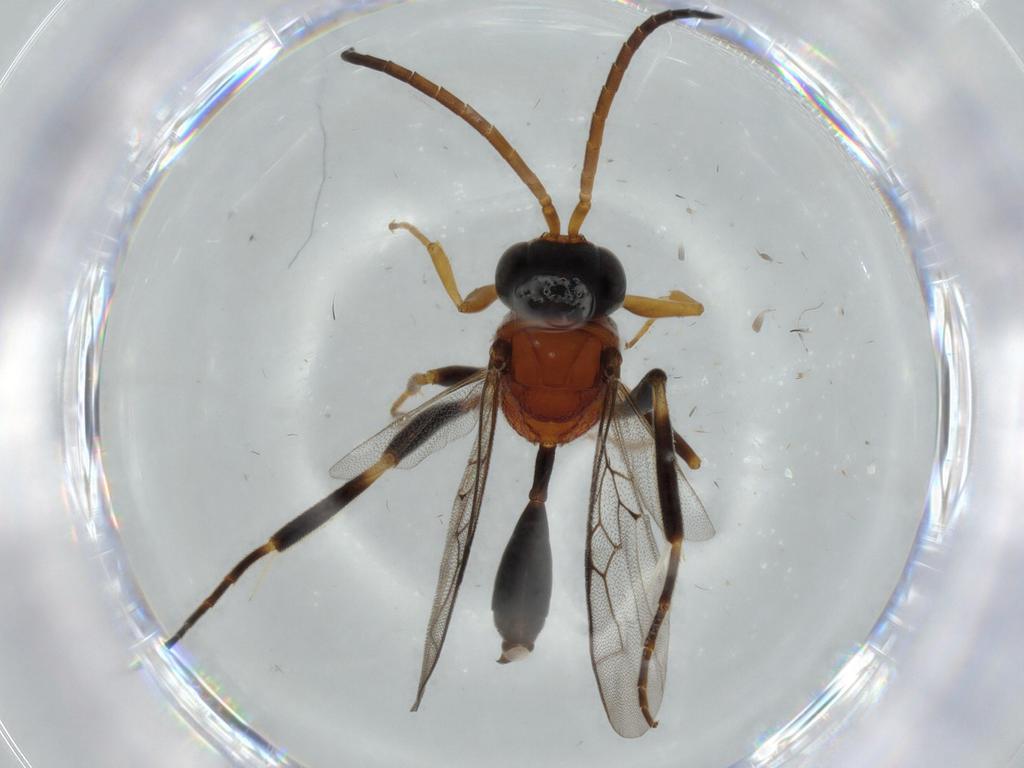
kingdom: Animalia
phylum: Arthropoda
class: Insecta
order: Hymenoptera
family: Evaniidae
